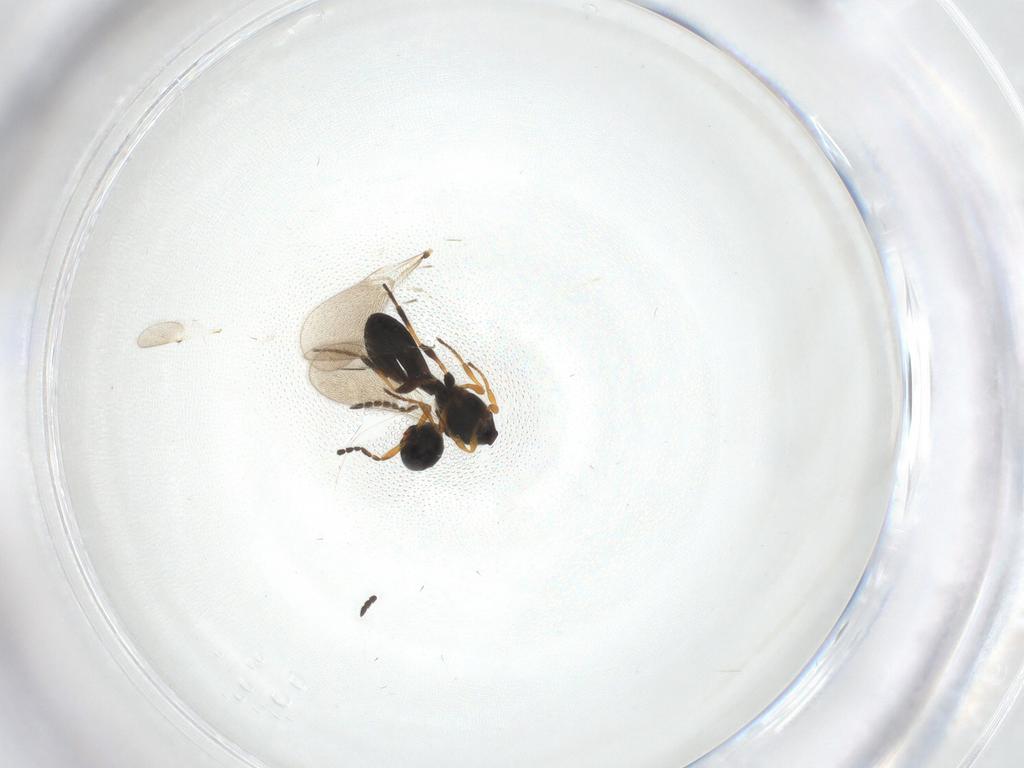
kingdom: Animalia
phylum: Arthropoda
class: Insecta
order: Hymenoptera
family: Platygastridae
